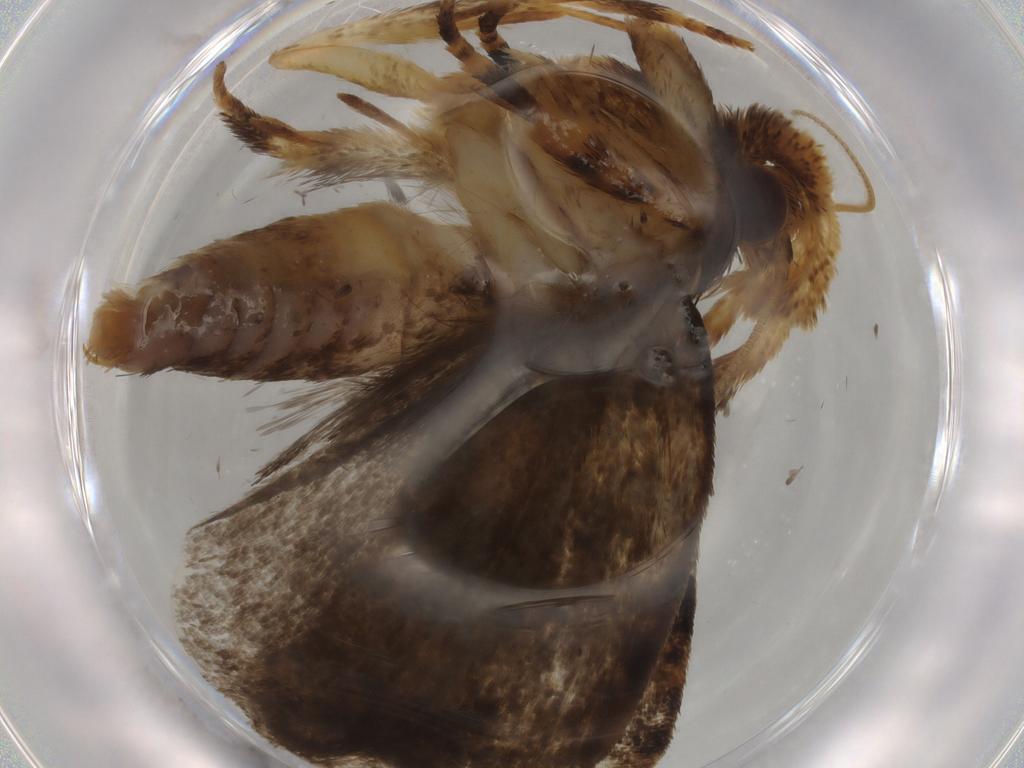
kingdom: Animalia
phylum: Arthropoda
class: Insecta
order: Lepidoptera
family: Tineidae
